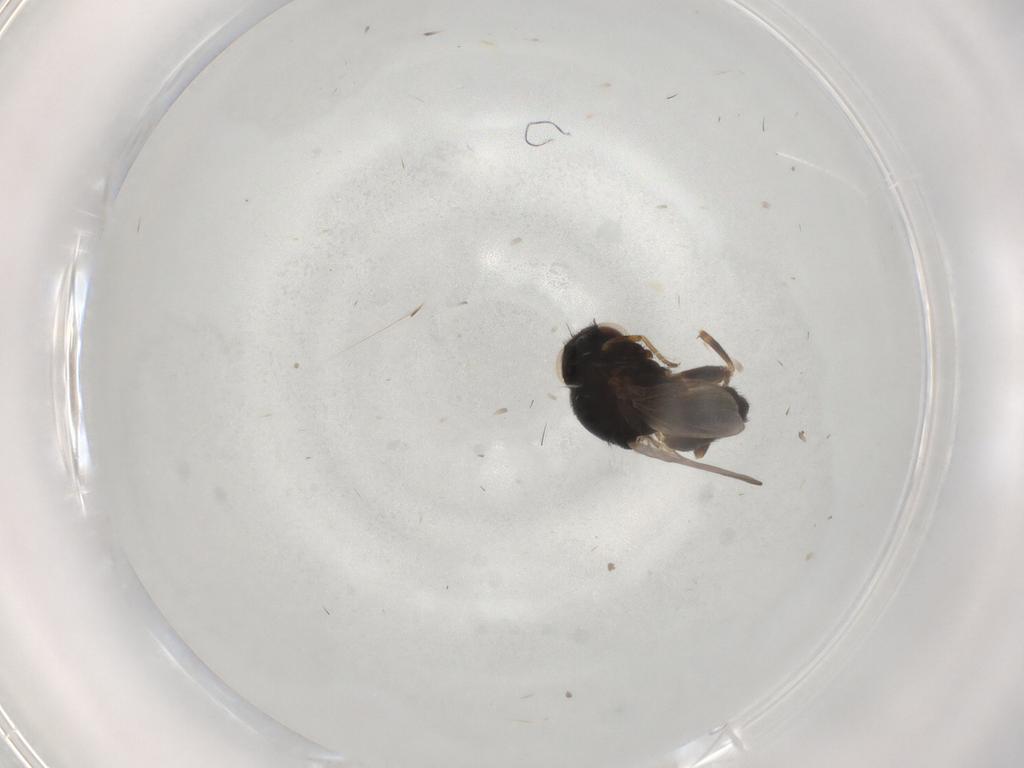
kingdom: Animalia
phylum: Arthropoda
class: Insecta
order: Diptera
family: Chloropidae
